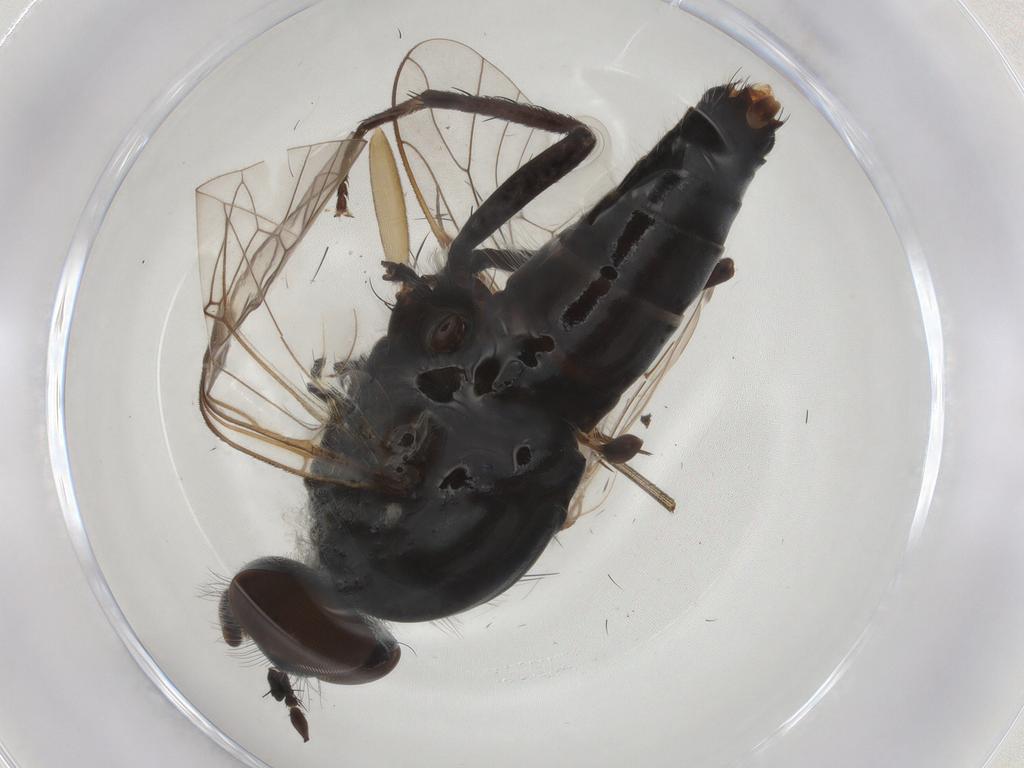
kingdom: Animalia
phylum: Arthropoda
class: Insecta
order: Diptera
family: Therevidae
